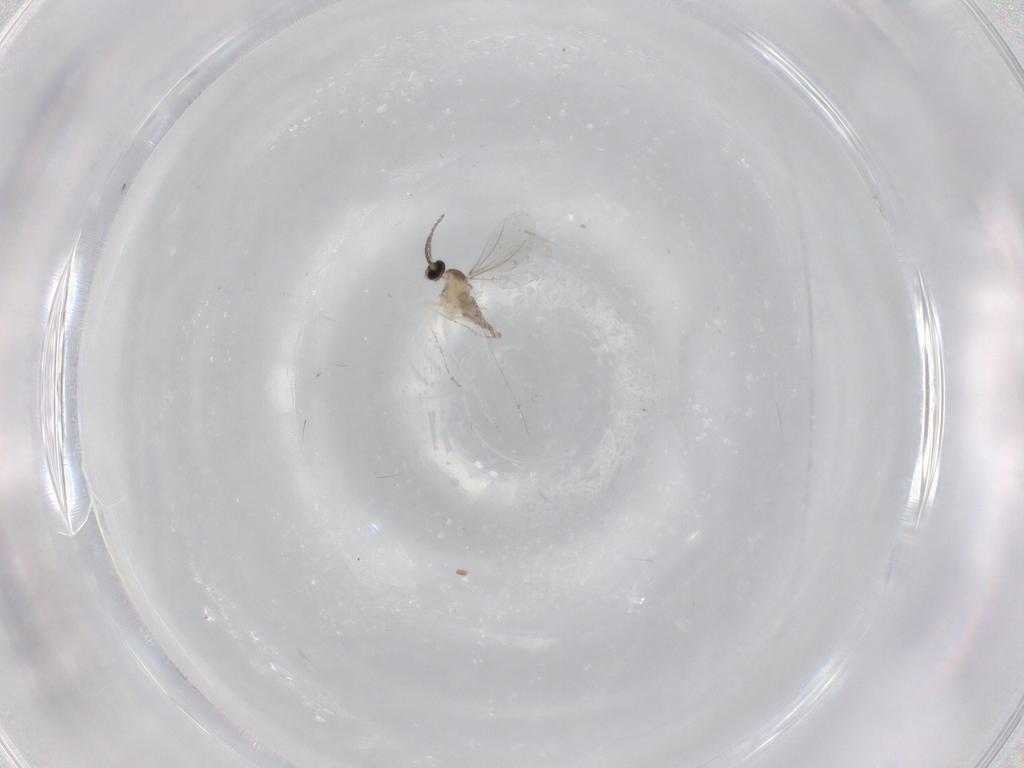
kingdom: Animalia
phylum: Arthropoda
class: Insecta
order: Diptera
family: Cecidomyiidae
